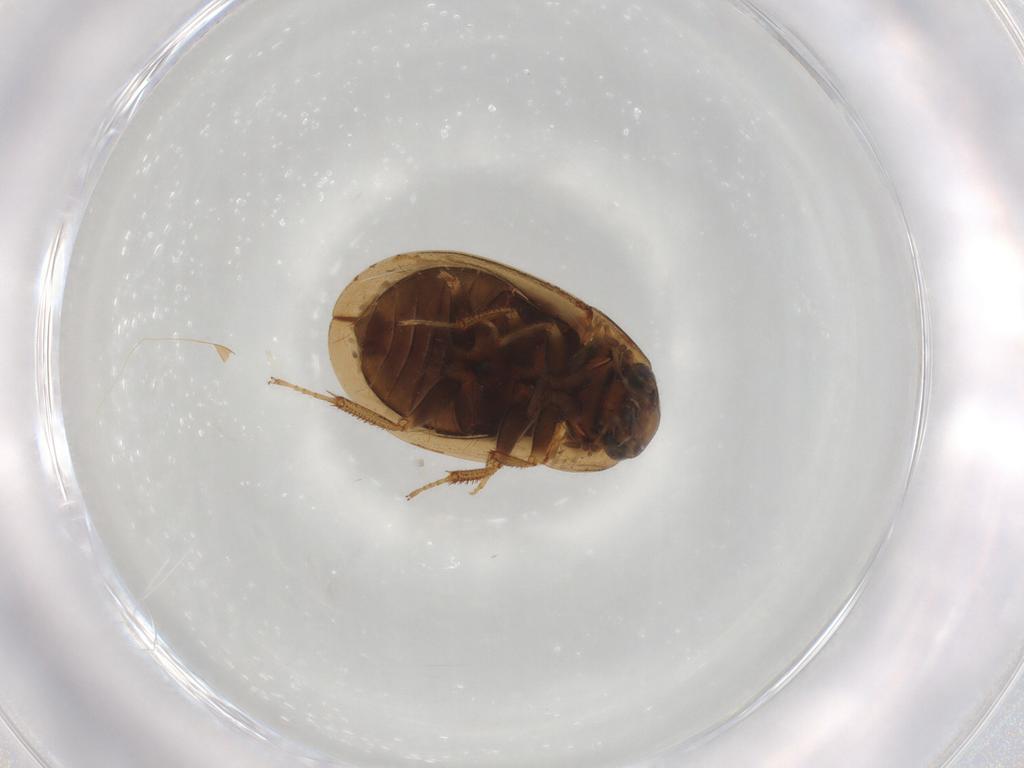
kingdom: Animalia
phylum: Arthropoda
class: Insecta
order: Coleoptera
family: Hydrophilidae
